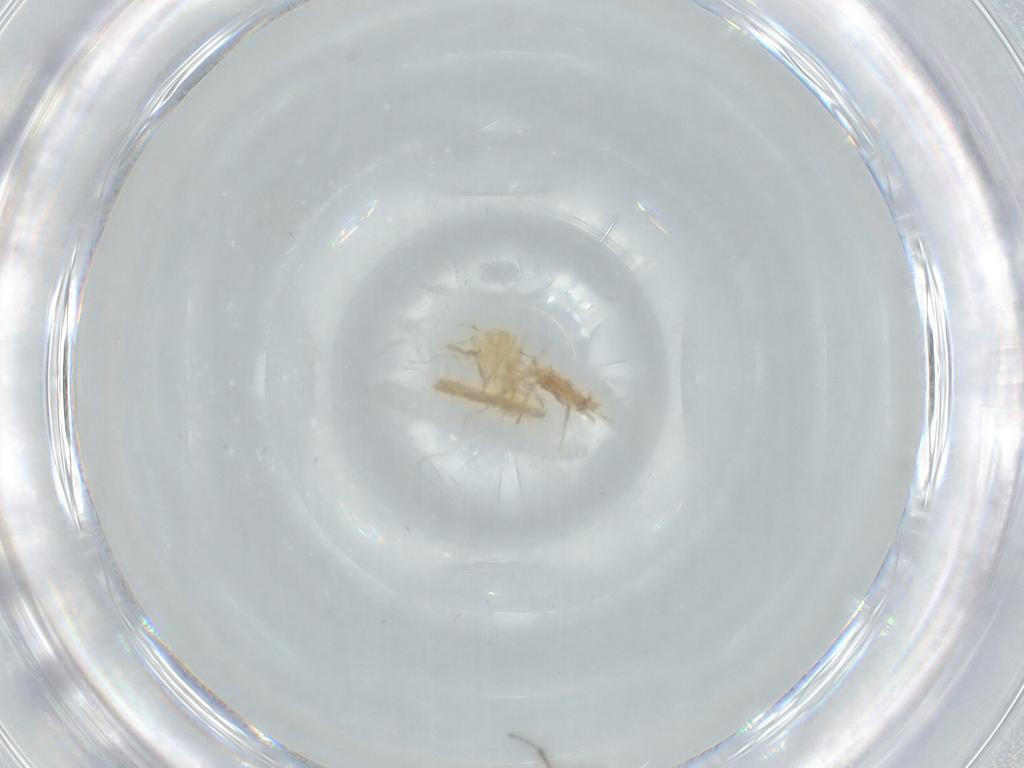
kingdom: Animalia
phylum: Arthropoda
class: Insecta
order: Hymenoptera
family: Scelionidae
